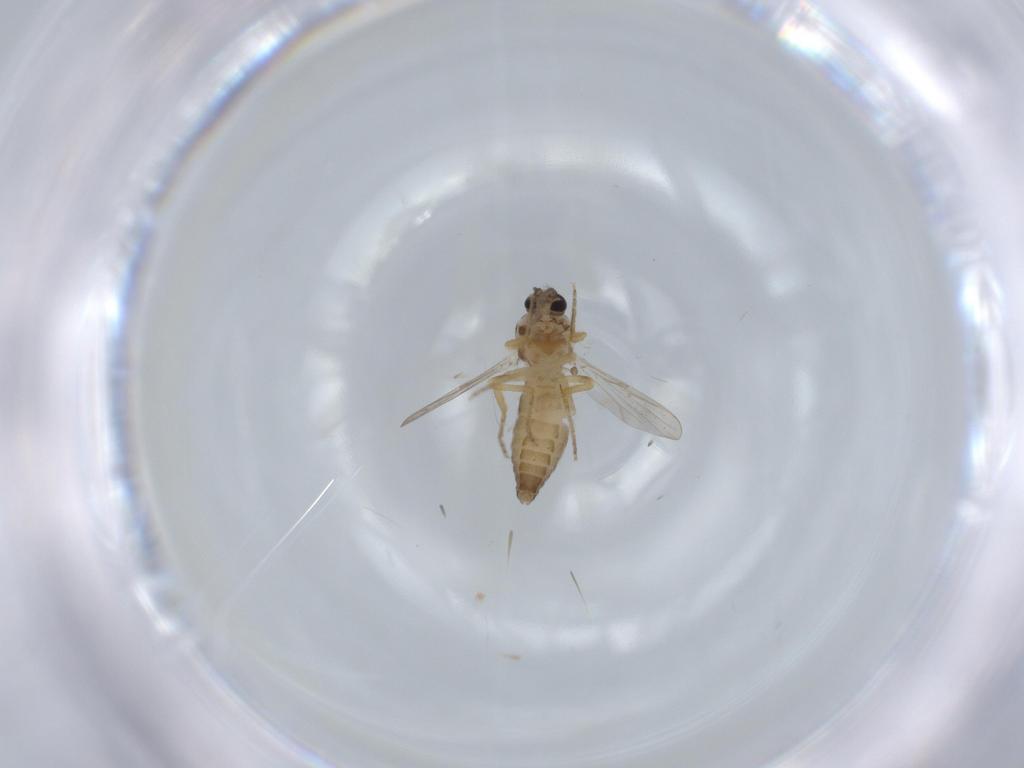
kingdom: Animalia
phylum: Arthropoda
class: Insecta
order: Diptera
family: Ceratopogonidae
